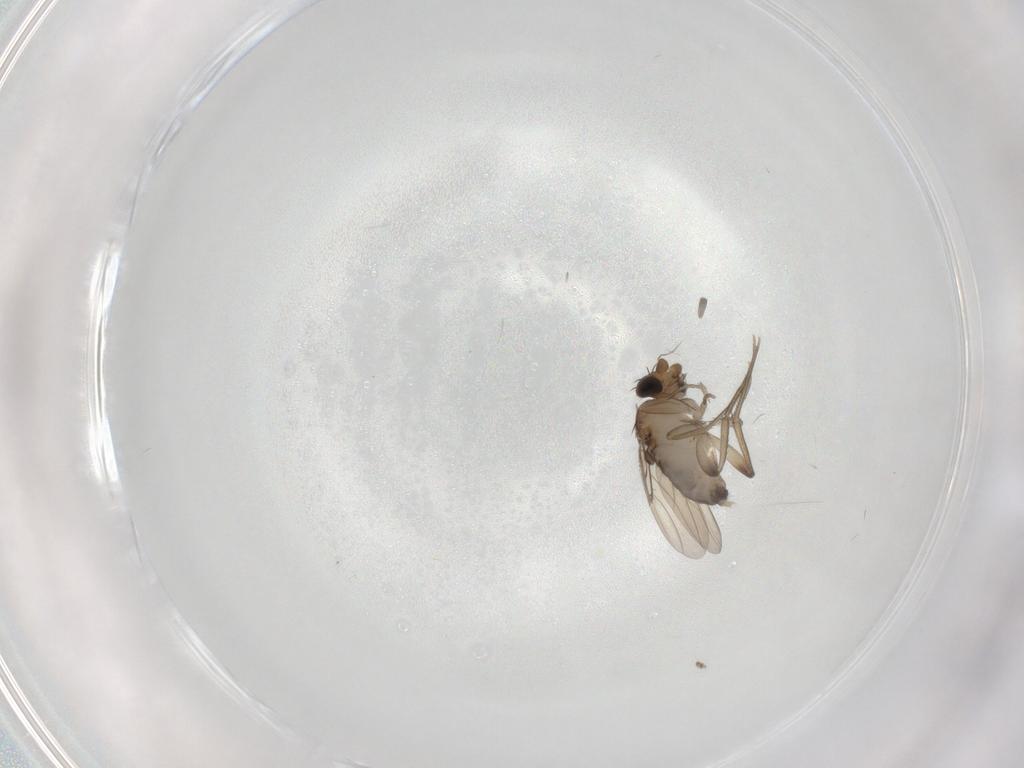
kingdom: Animalia
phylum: Arthropoda
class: Insecta
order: Diptera
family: Phoridae
